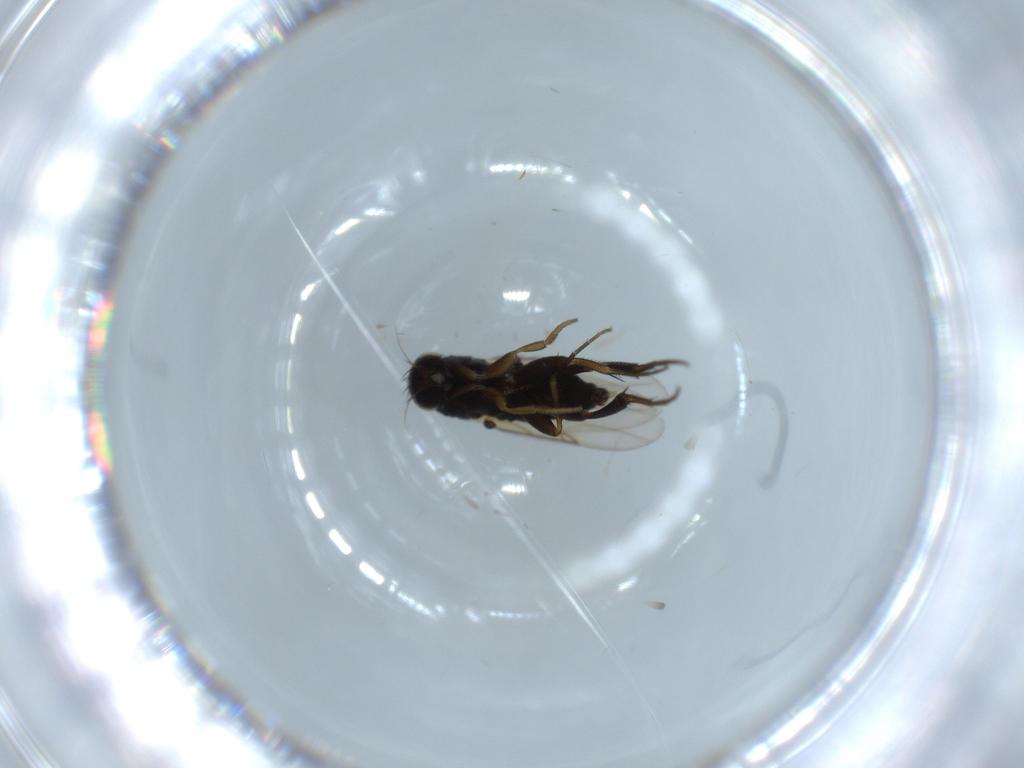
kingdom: Animalia
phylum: Arthropoda
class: Insecta
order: Diptera
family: Phoridae
